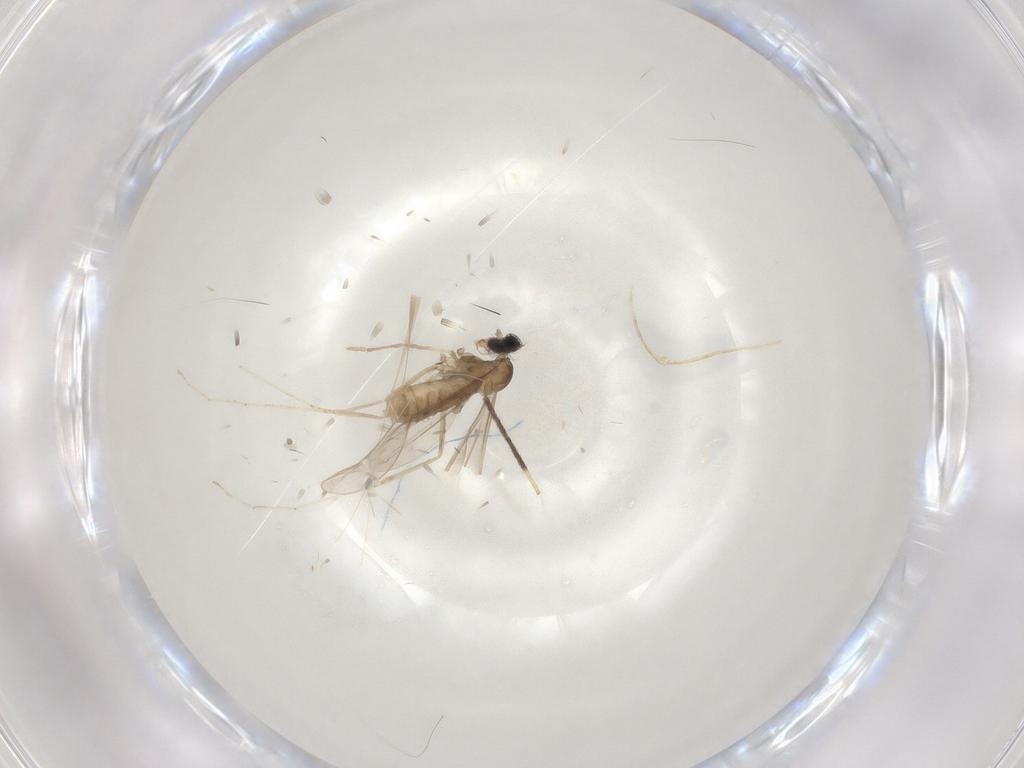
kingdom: Animalia
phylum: Arthropoda
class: Insecta
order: Diptera
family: Cecidomyiidae
